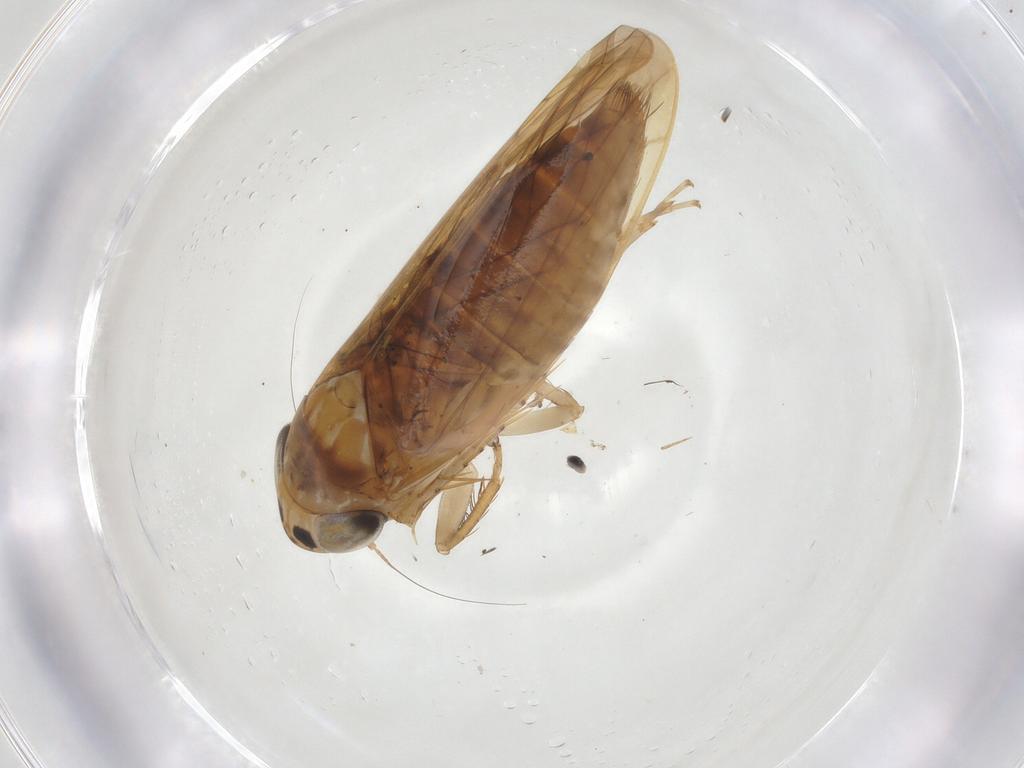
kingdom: Animalia
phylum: Arthropoda
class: Insecta
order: Hemiptera
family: Cicadellidae
